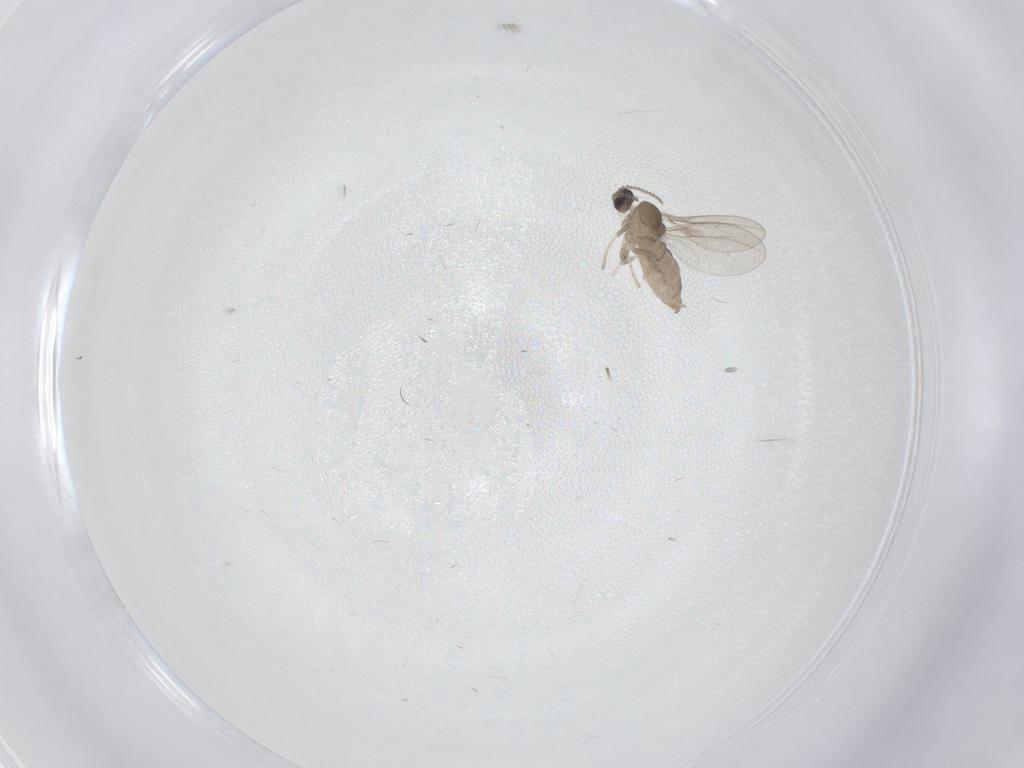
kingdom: Animalia
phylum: Arthropoda
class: Insecta
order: Diptera
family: Cecidomyiidae
